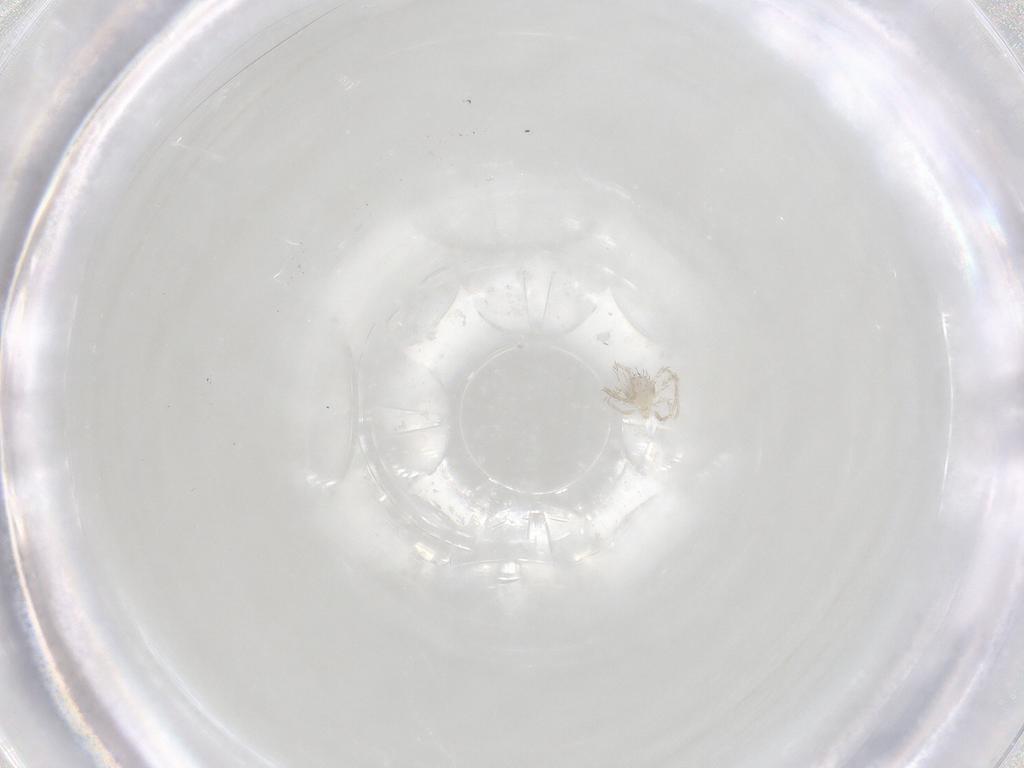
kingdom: Animalia
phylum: Arthropoda
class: Arachnida
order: Trombidiformes
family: Erythraeidae
